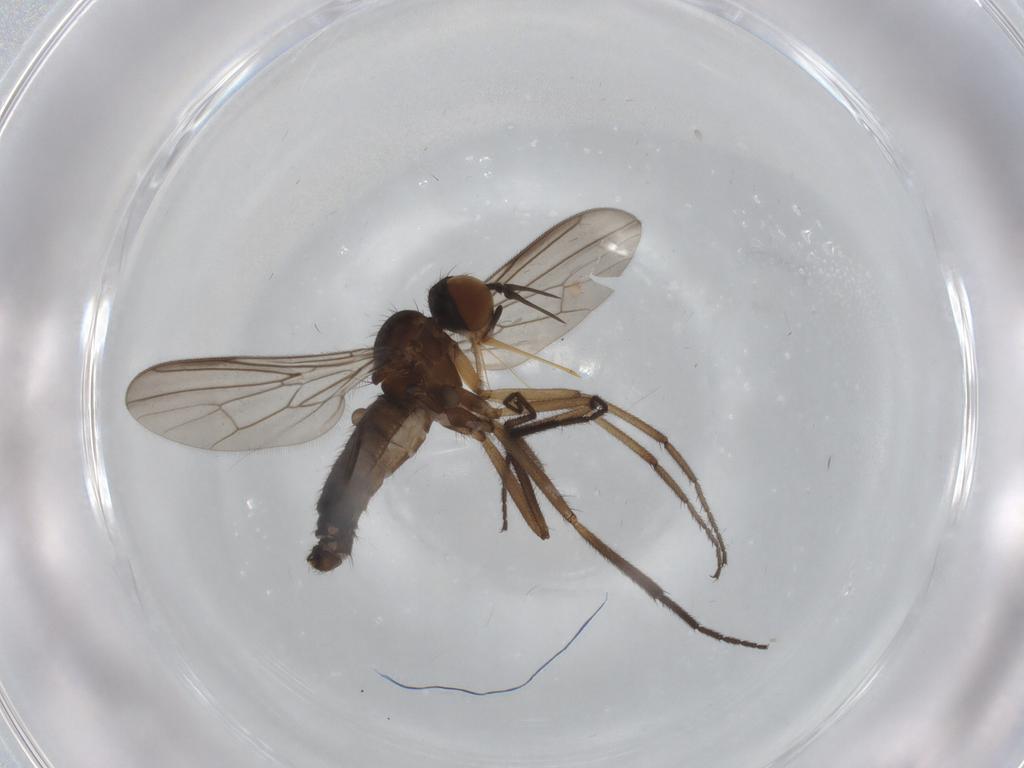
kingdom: Animalia
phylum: Arthropoda
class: Insecta
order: Diptera
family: Empididae
